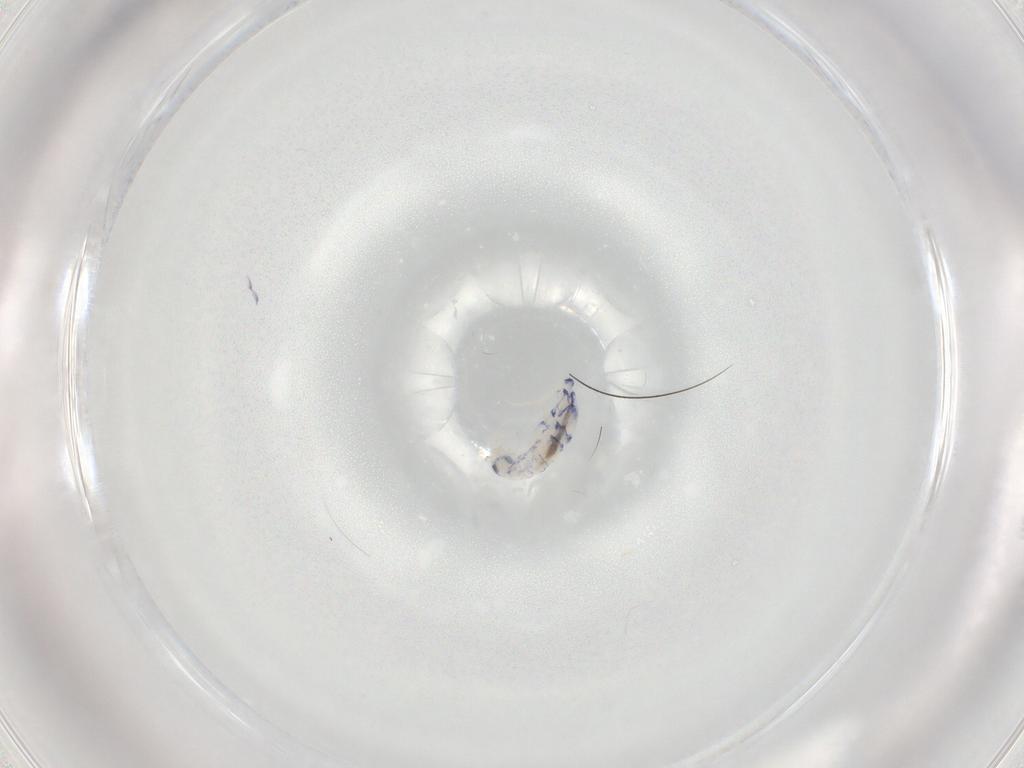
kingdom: Animalia
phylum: Arthropoda
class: Collembola
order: Entomobryomorpha
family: Entomobryidae
